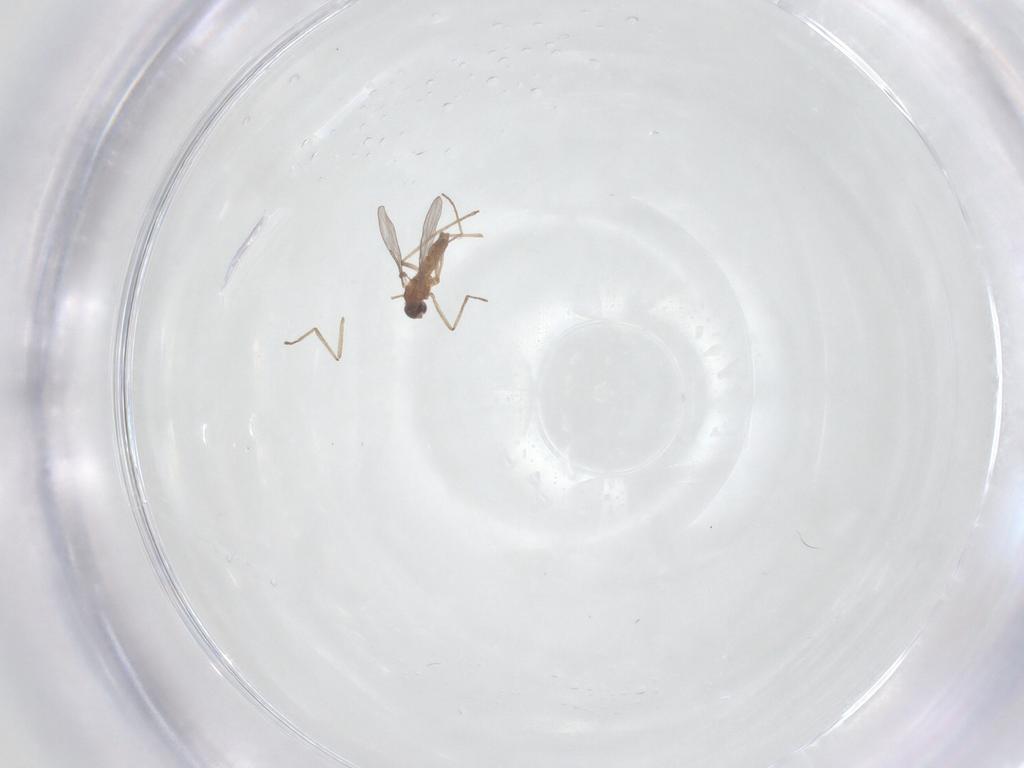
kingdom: Animalia
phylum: Arthropoda
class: Insecta
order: Diptera
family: Cecidomyiidae
